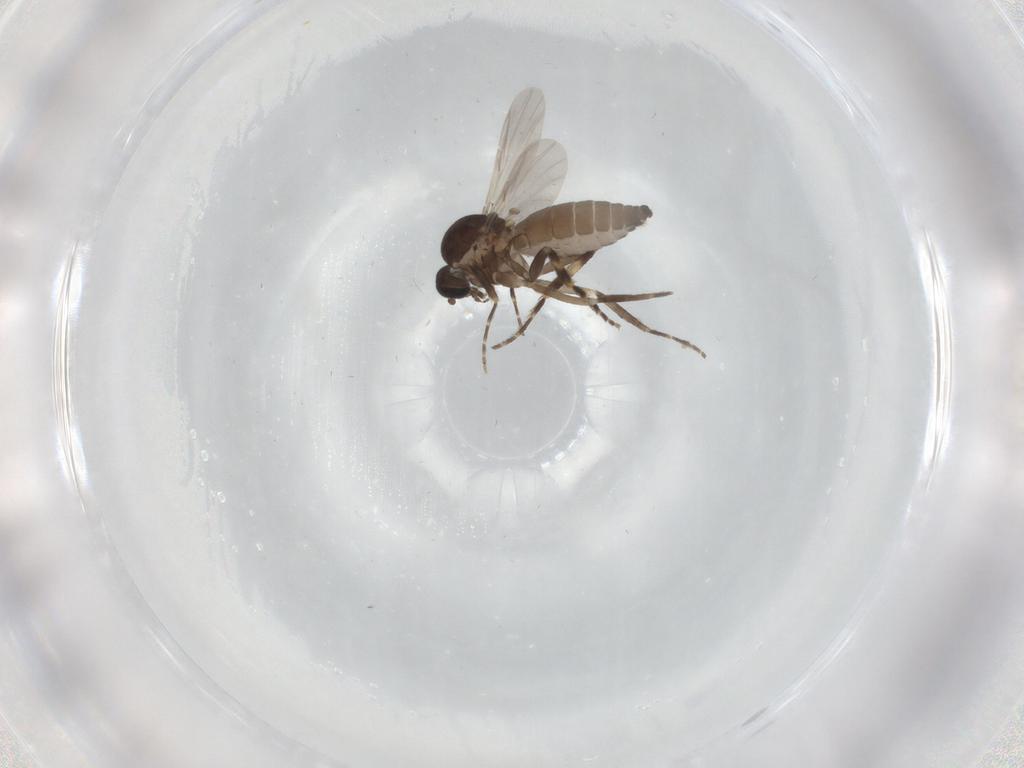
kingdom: Animalia
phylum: Arthropoda
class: Insecta
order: Diptera
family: Ceratopogonidae
